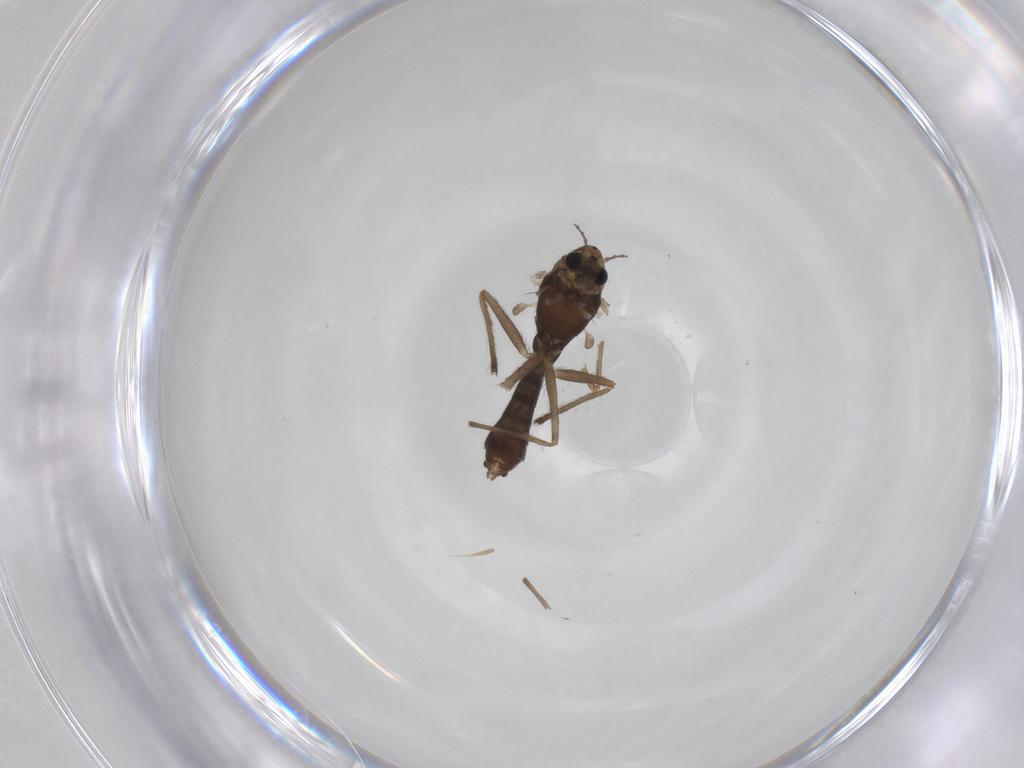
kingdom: Animalia
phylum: Arthropoda
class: Insecta
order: Diptera
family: Chironomidae
